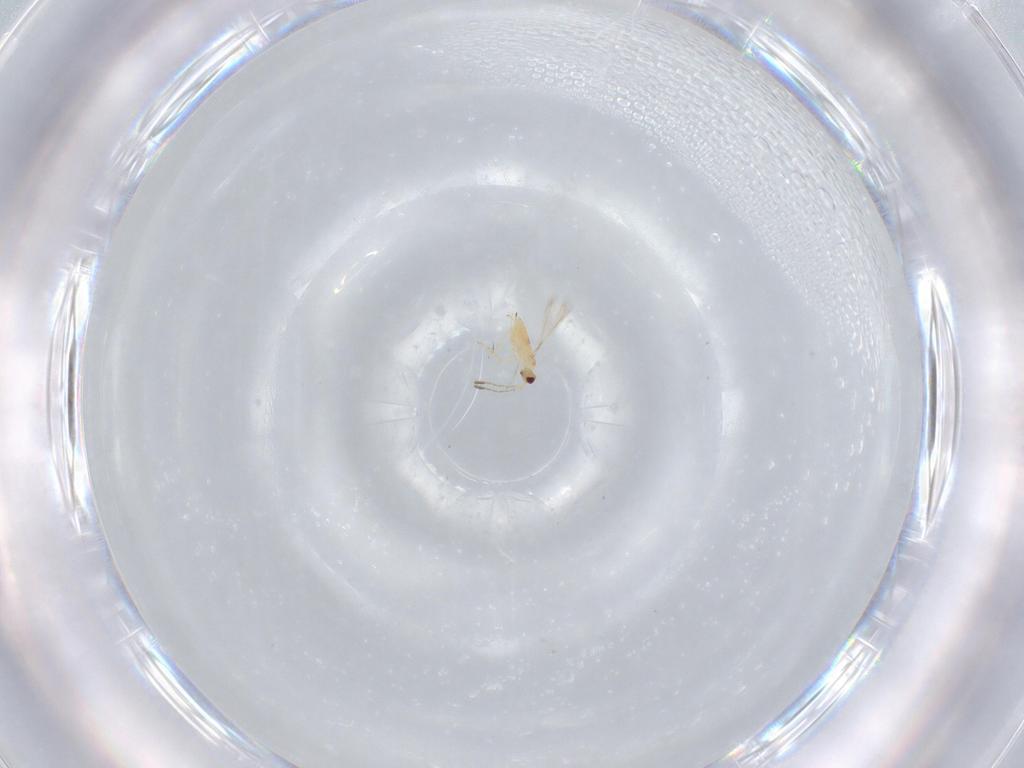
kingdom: Animalia
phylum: Arthropoda
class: Insecta
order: Hymenoptera
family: Mymaridae
